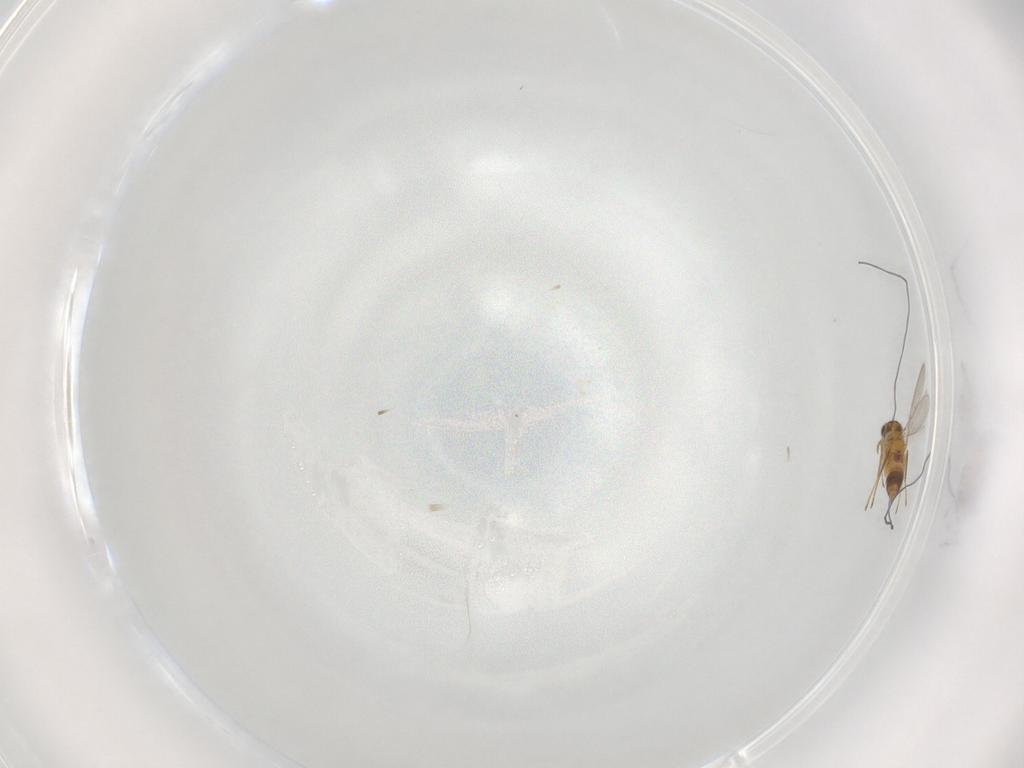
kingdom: Animalia
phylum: Arthropoda
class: Insecta
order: Hymenoptera
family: Mymaridae
